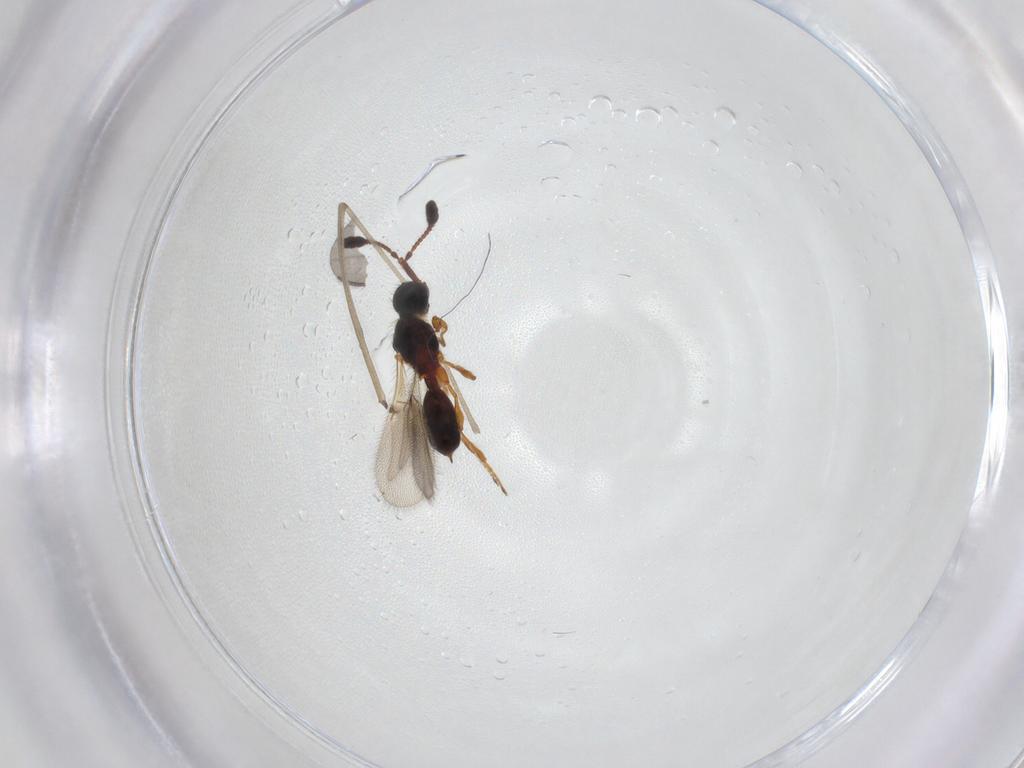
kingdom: Animalia
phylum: Arthropoda
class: Insecta
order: Hymenoptera
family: Diapriidae
